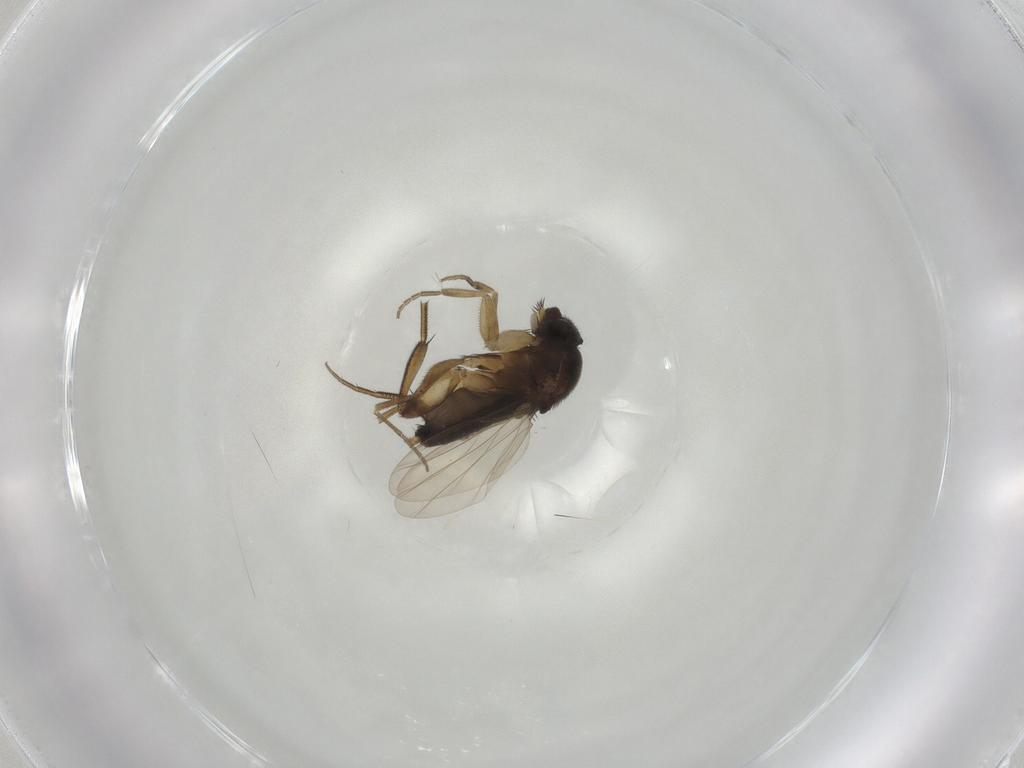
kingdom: Animalia
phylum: Arthropoda
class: Insecta
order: Diptera
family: Phoridae
